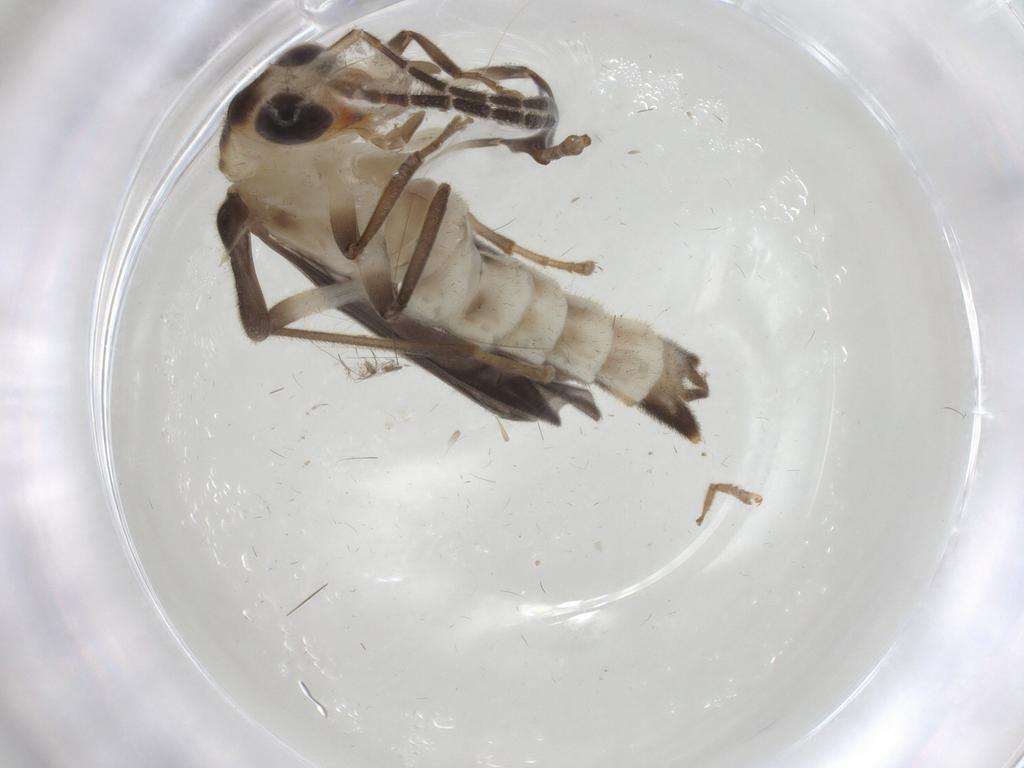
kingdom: Animalia
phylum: Arthropoda
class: Insecta
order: Coleoptera
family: Cantharidae
